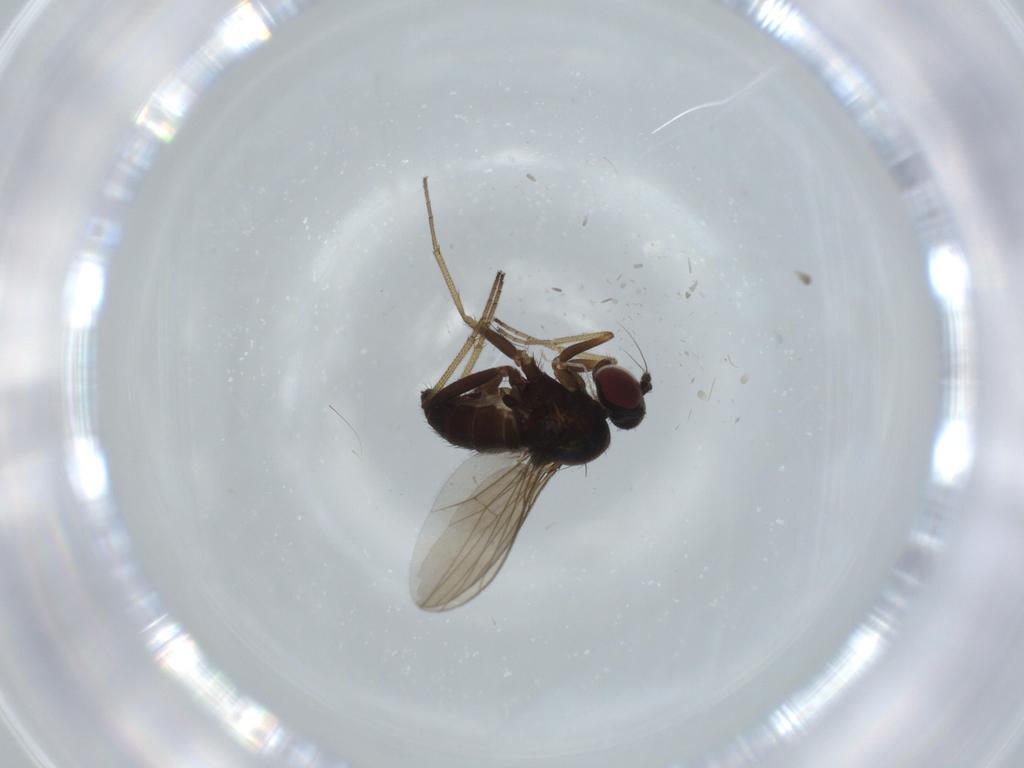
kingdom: Animalia
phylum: Arthropoda
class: Insecta
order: Diptera
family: Dolichopodidae
